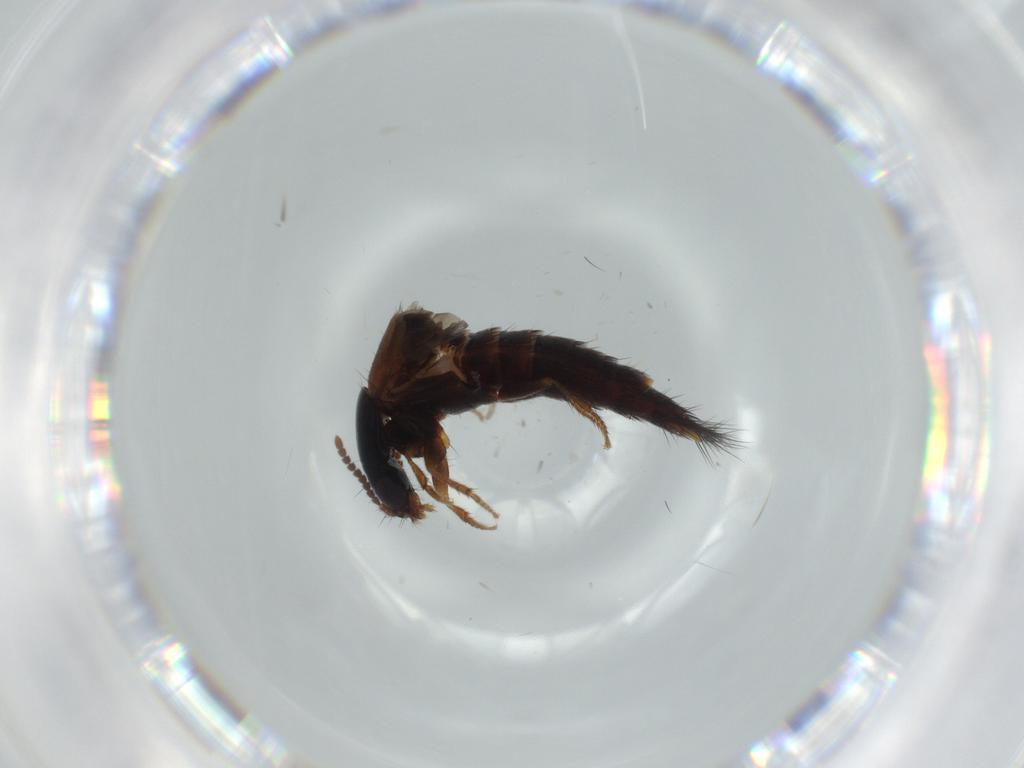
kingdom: Animalia
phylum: Arthropoda
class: Insecta
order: Coleoptera
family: Staphylinidae
